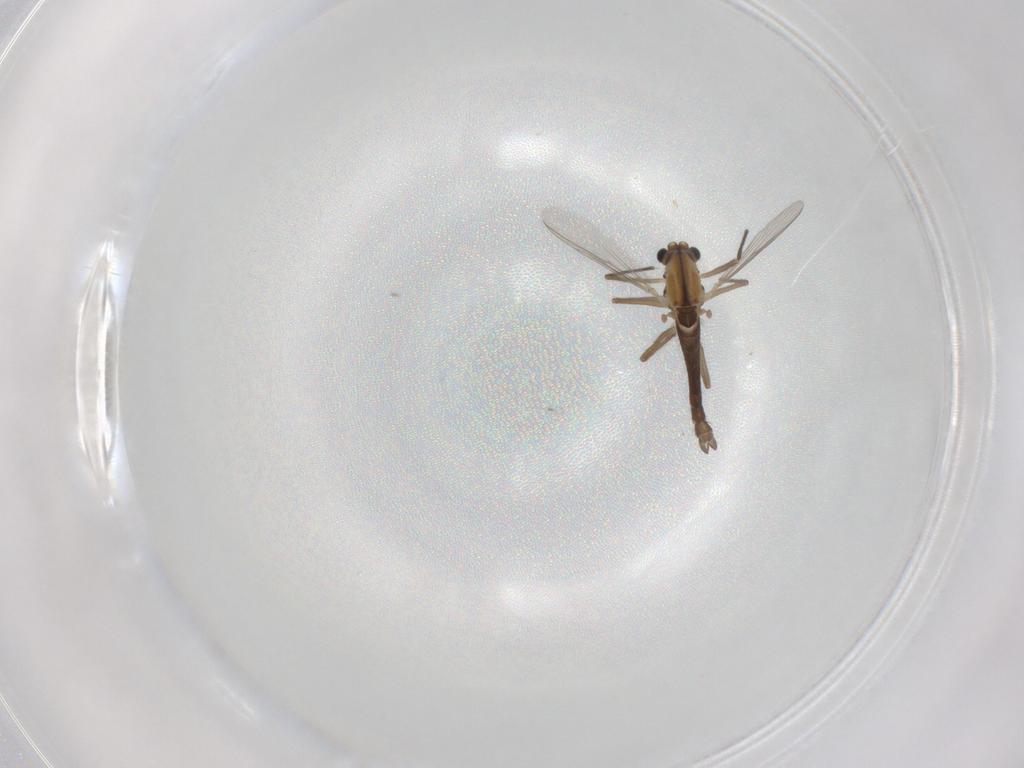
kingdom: Animalia
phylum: Arthropoda
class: Insecta
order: Diptera
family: Chironomidae
